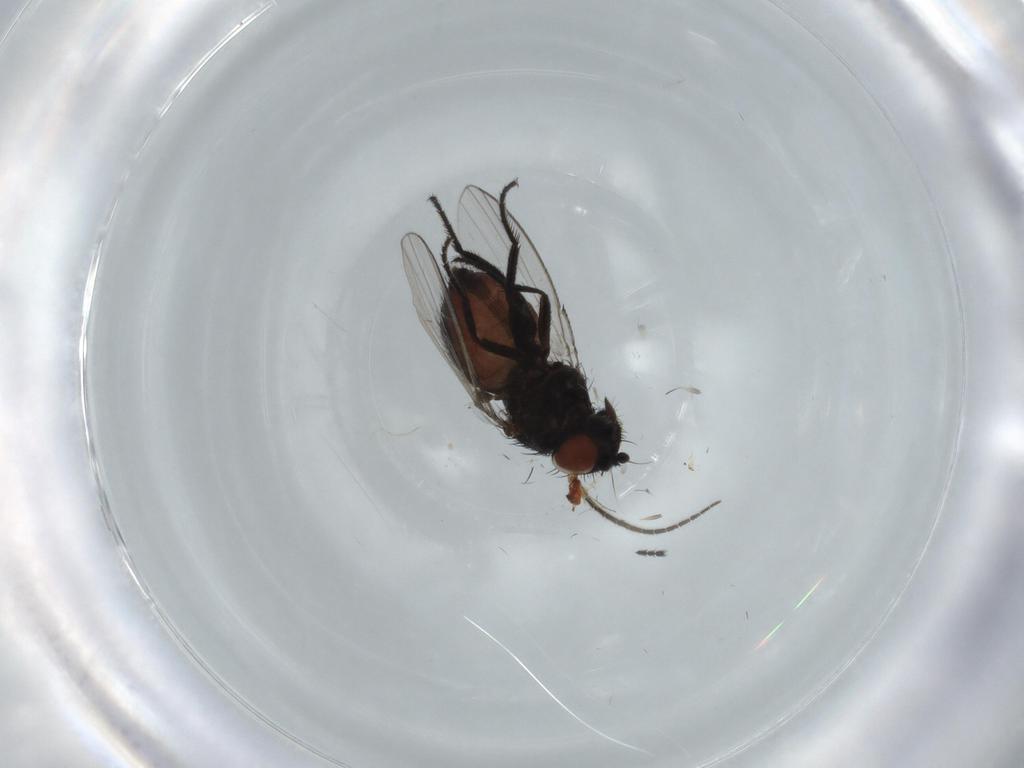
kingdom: Animalia
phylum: Arthropoda
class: Insecta
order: Diptera
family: Sciaridae
